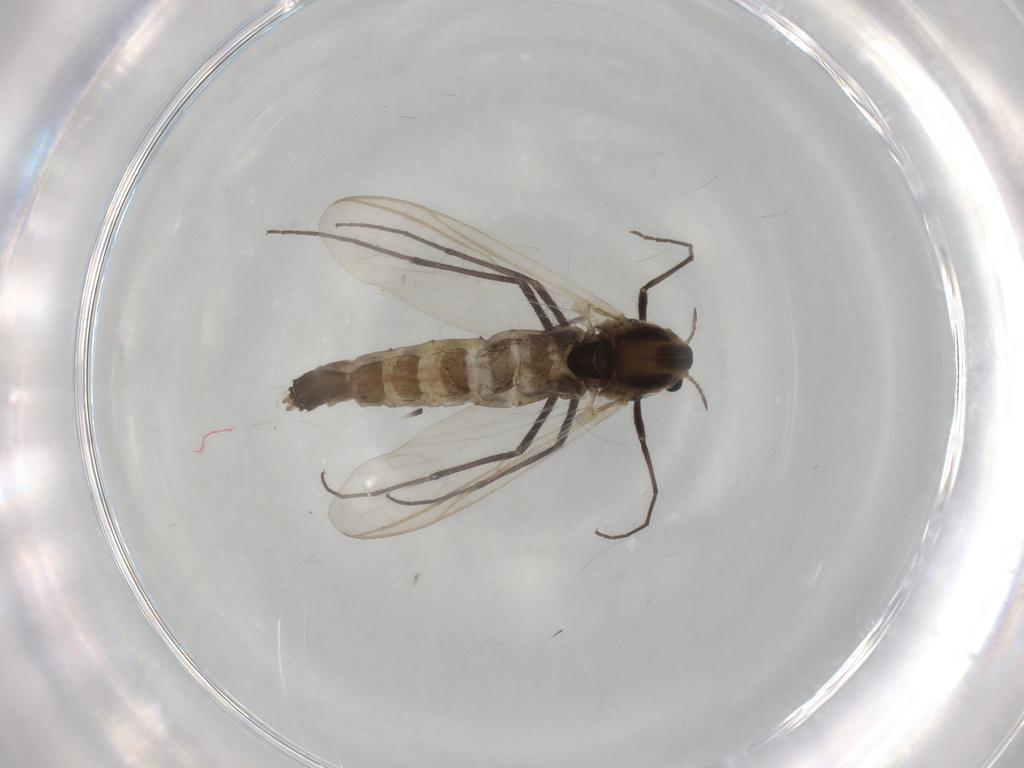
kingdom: Animalia
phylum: Arthropoda
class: Insecta
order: Diptera
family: Chironomidae
